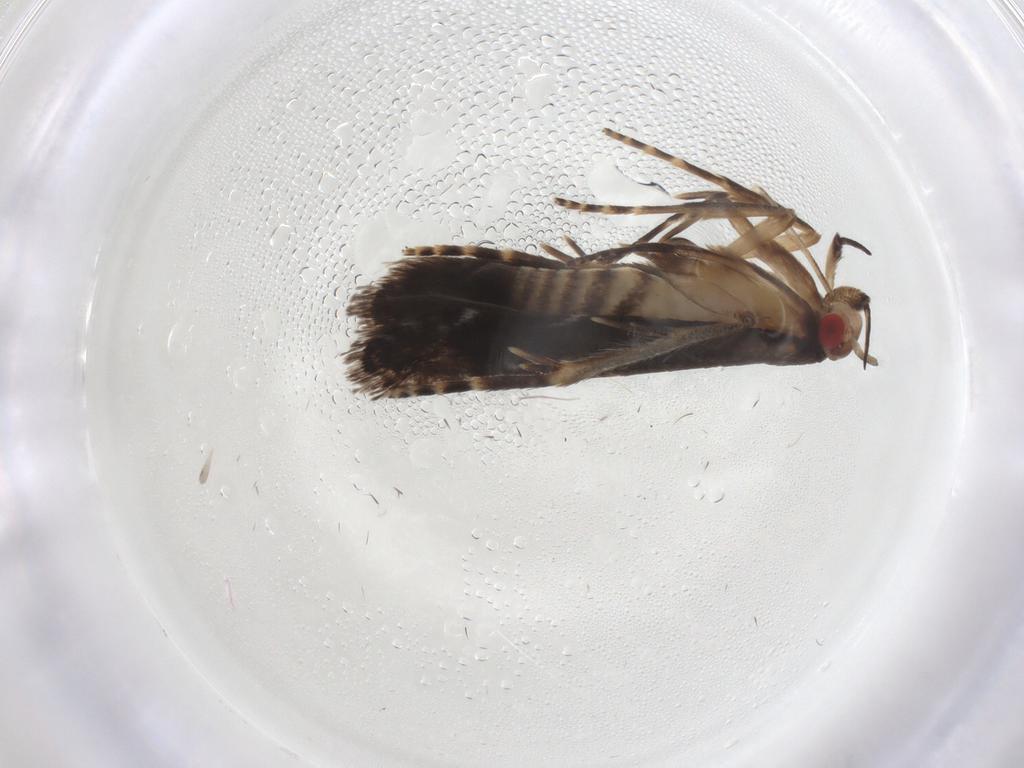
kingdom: Animalia
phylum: Arthropoda
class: Insecta
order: Lepidoptera
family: Gelechiidae
